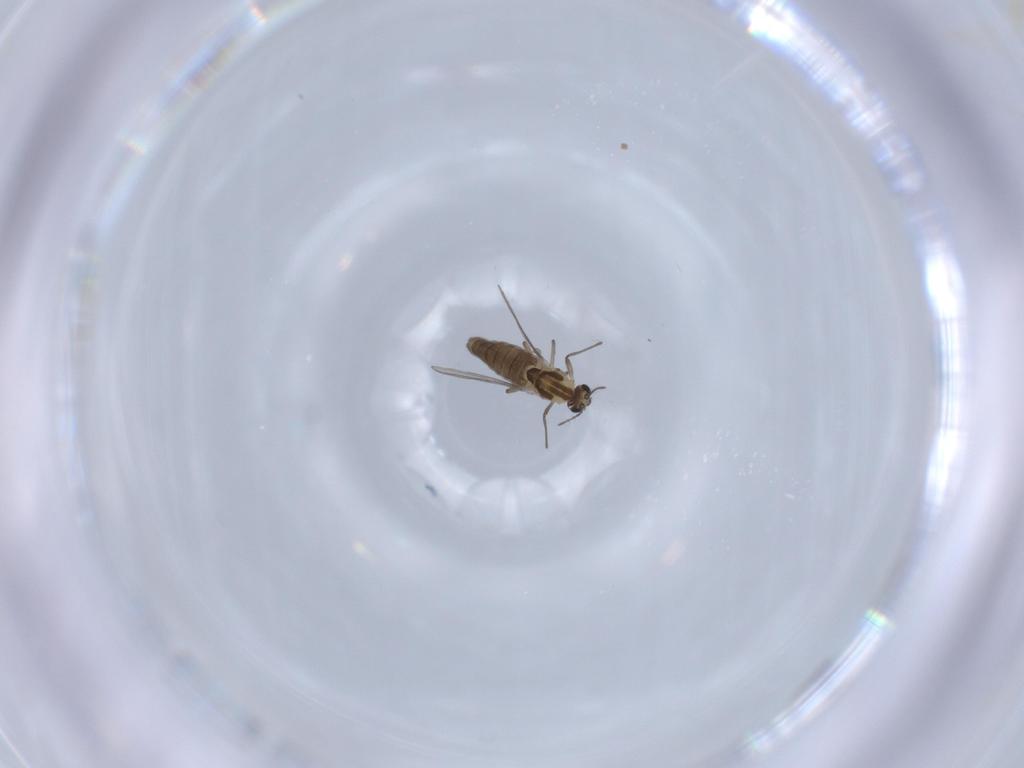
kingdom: Animalia
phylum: Arthropoda
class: Insecta
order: Diptera
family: Chironomidae
